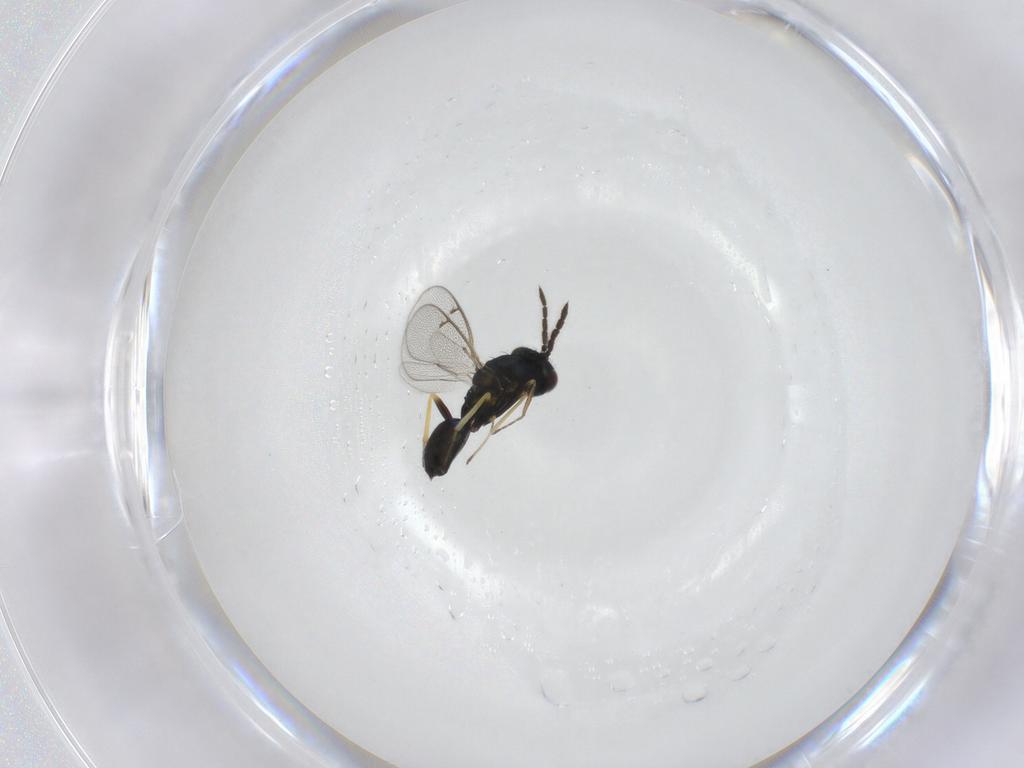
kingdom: Animalia
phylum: Arthropoda
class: Insecta
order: Hymenoptera
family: Eulophidae
